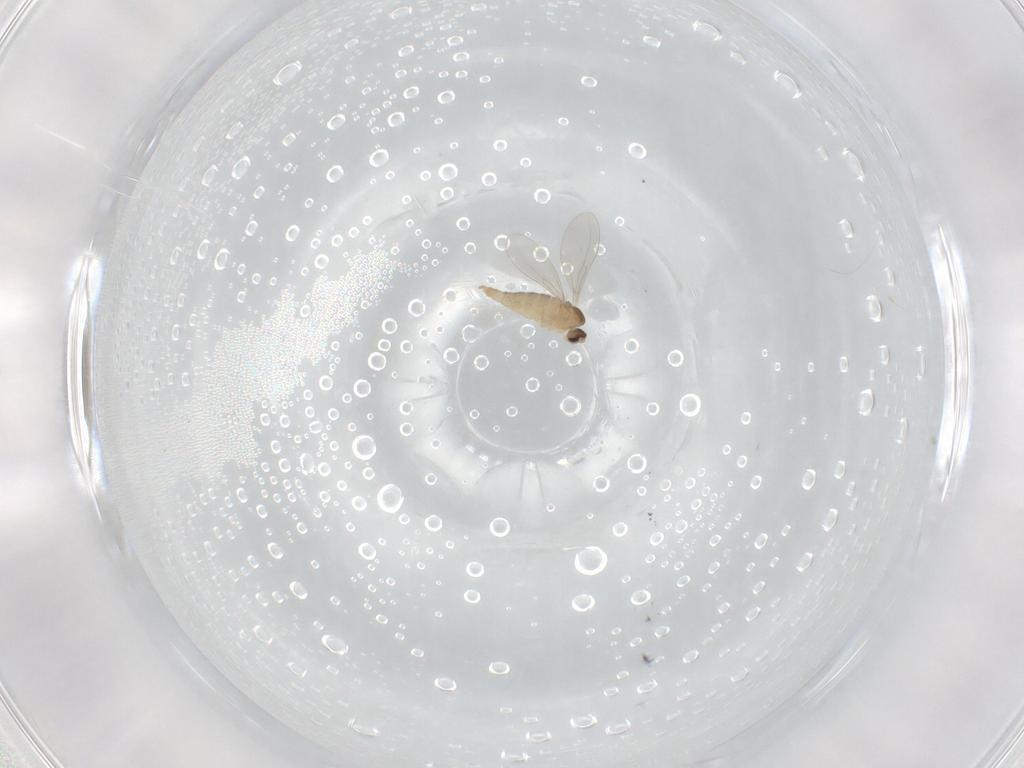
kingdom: Animalia
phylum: Arthropoda
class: Insecta
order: Diptera
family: Cecidomyiidae
